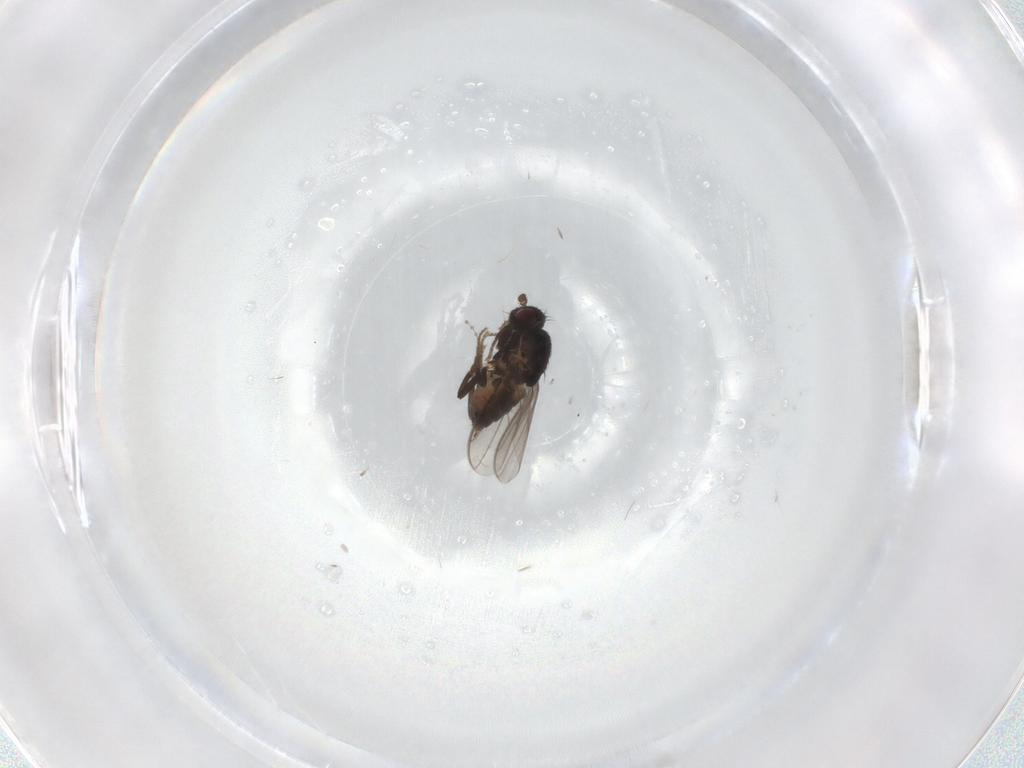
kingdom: Animalia
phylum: Arthropoda
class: Insecta
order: Diptera
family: Sphaeroceridae
